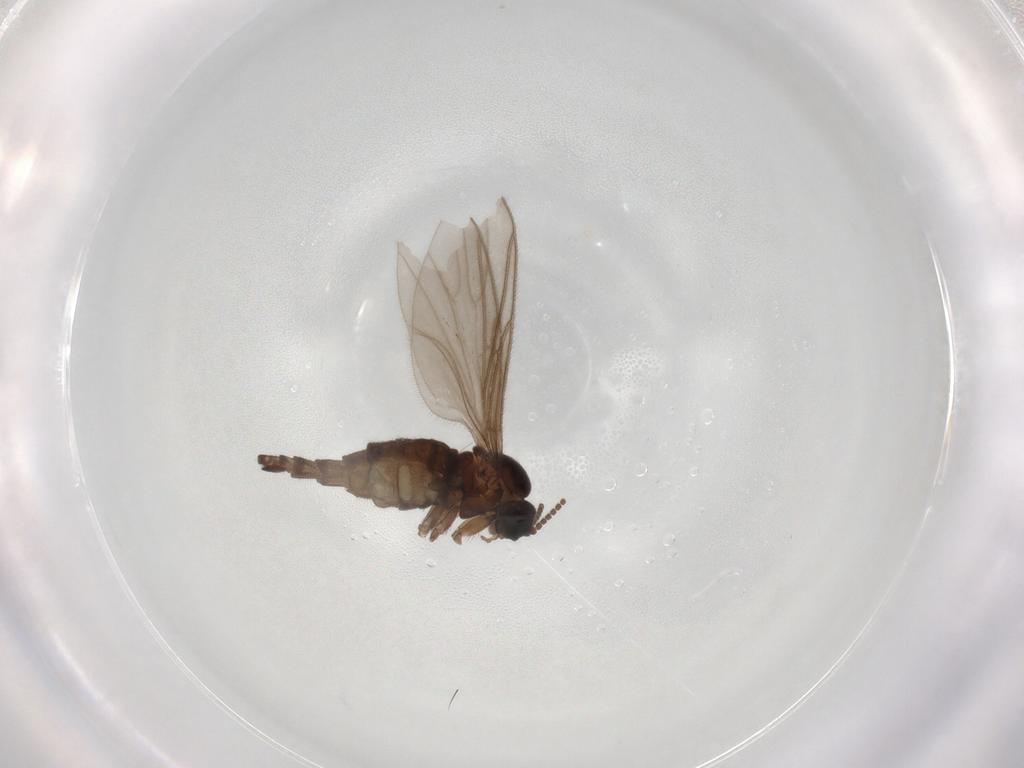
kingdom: Animalia
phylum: Arthropoda
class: Insecta
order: Diptera
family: Sciaridae
